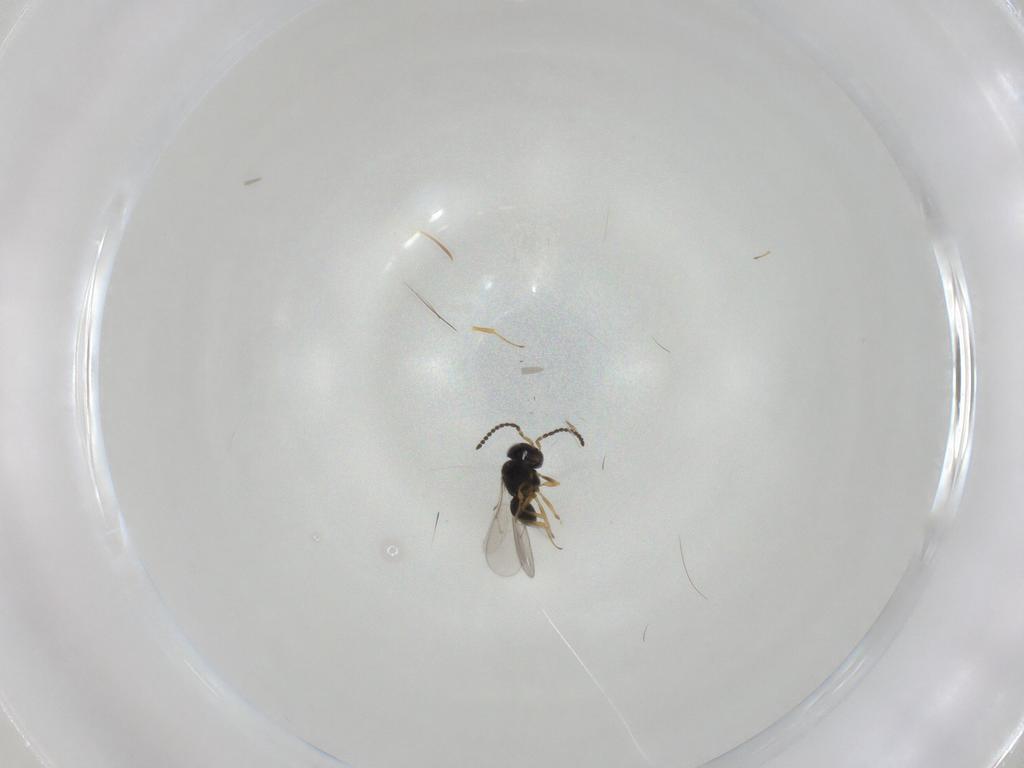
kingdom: Animalia
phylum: Arthropoda
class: Insecta
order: Hymenoptera
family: Scelionidae
